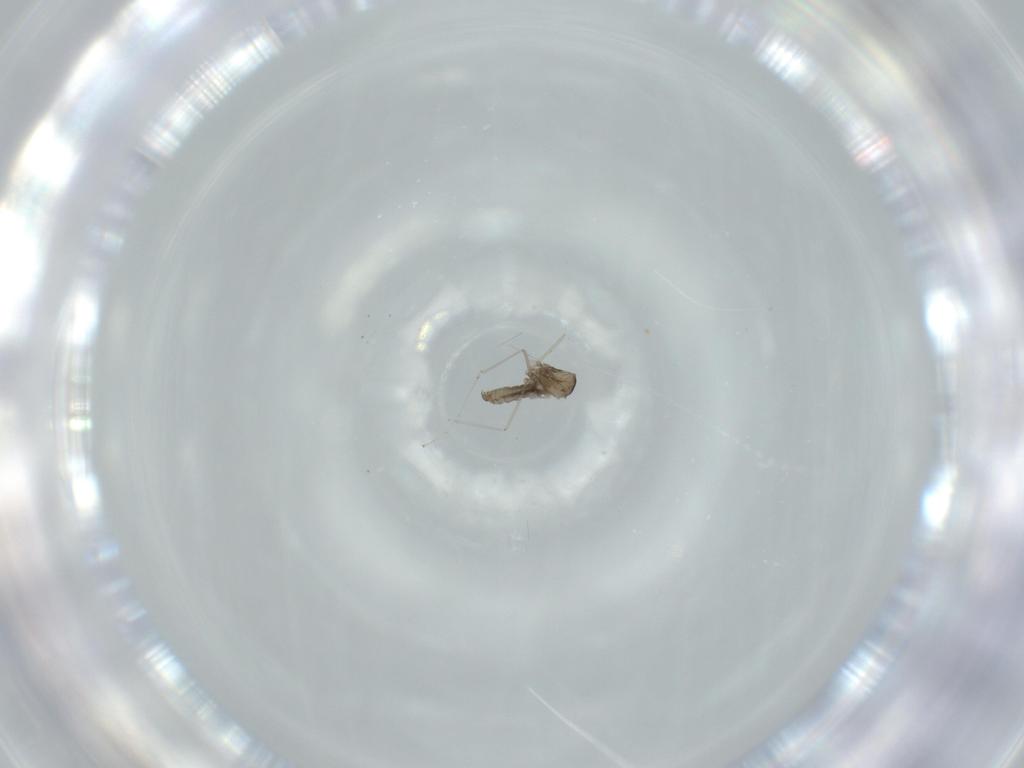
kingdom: Animalia
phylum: Arthropoda
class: Insecta
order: Diptera
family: Cecidomyiidae
